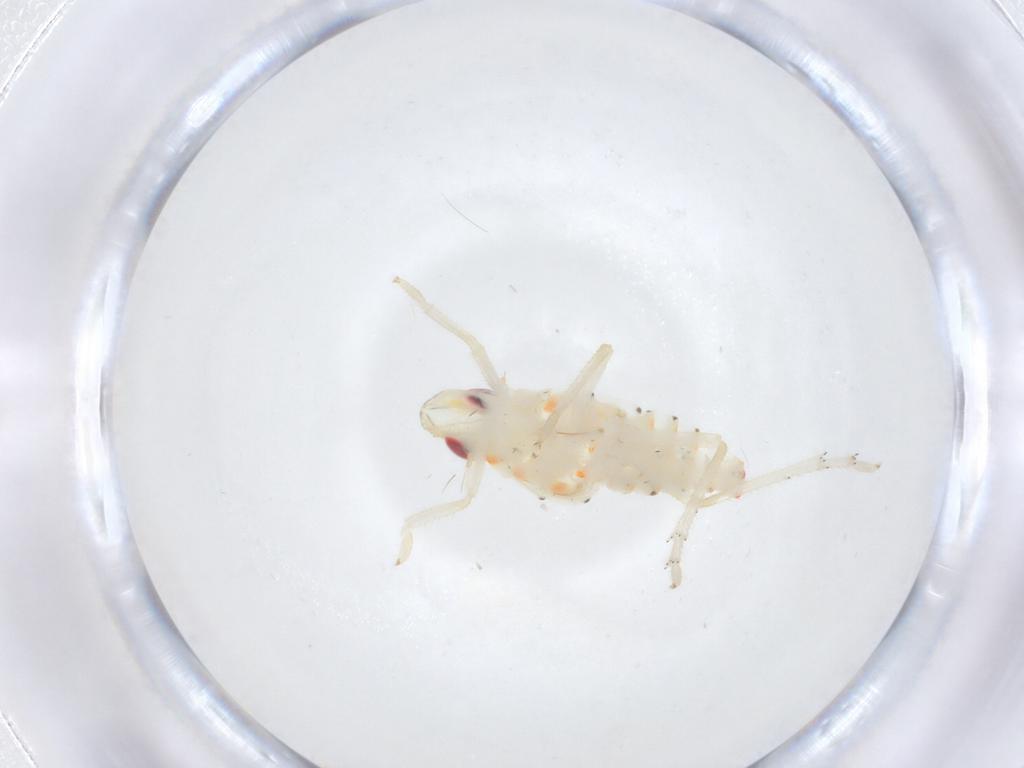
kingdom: Animalia
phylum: Arthropoda
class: Insecta
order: Hemiptera
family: Tropiduchidae
